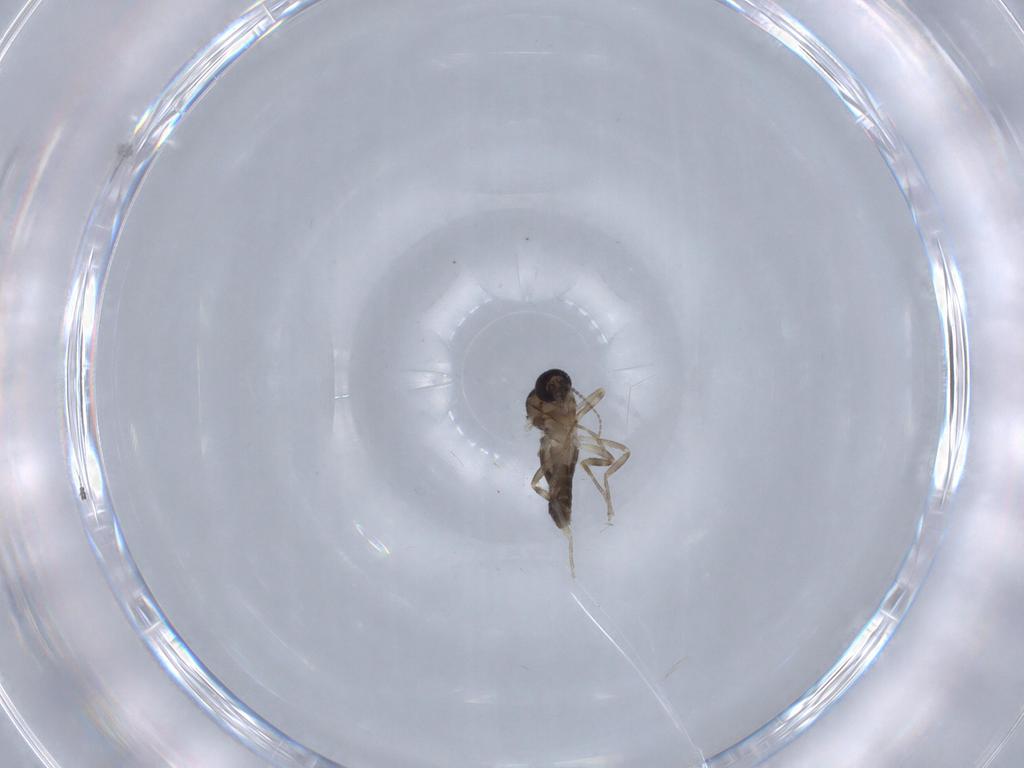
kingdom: Animalia
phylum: Arthropoda
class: Insecta
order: Diptera
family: Ceratopogonidae
